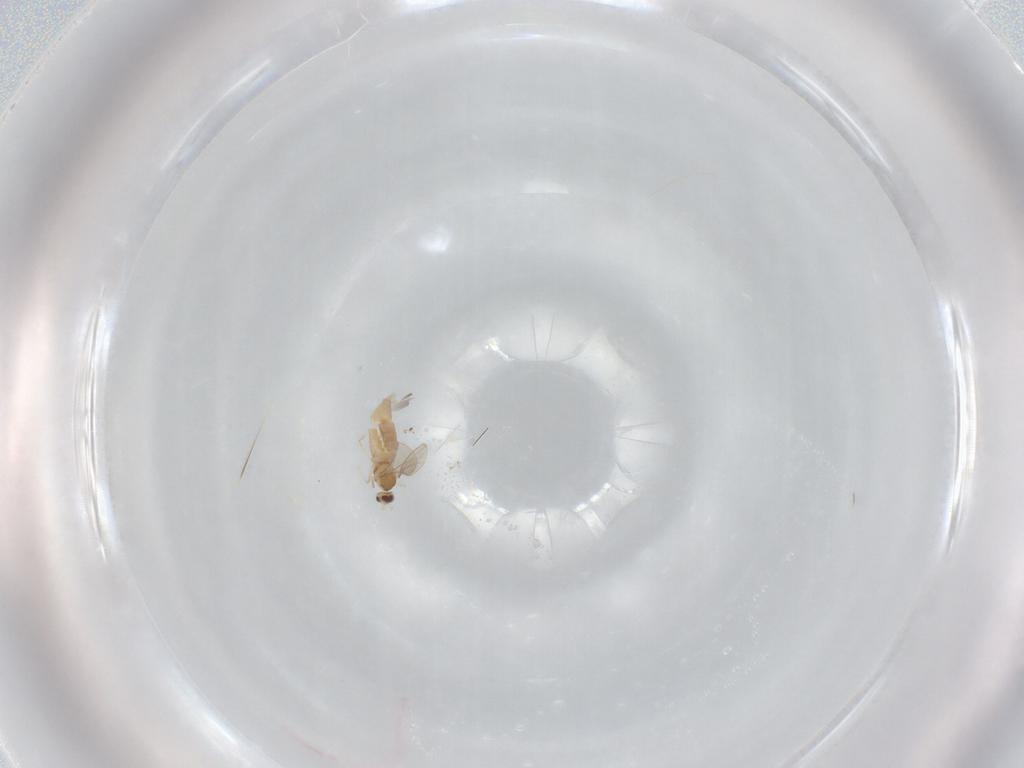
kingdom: Animalia
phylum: Arthropoda
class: Insecta
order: Diptera
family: Cecidomyiidae
